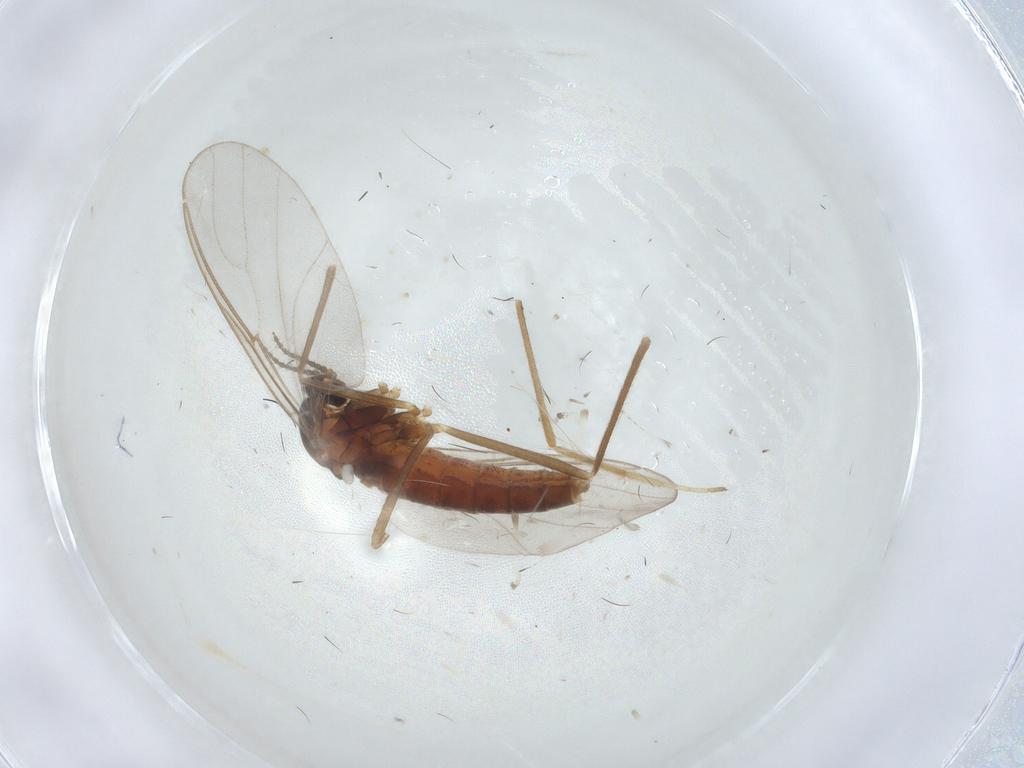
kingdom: Animalia
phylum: Arthropoda
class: Insecta
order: Diptera
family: Cecidomyiidae
